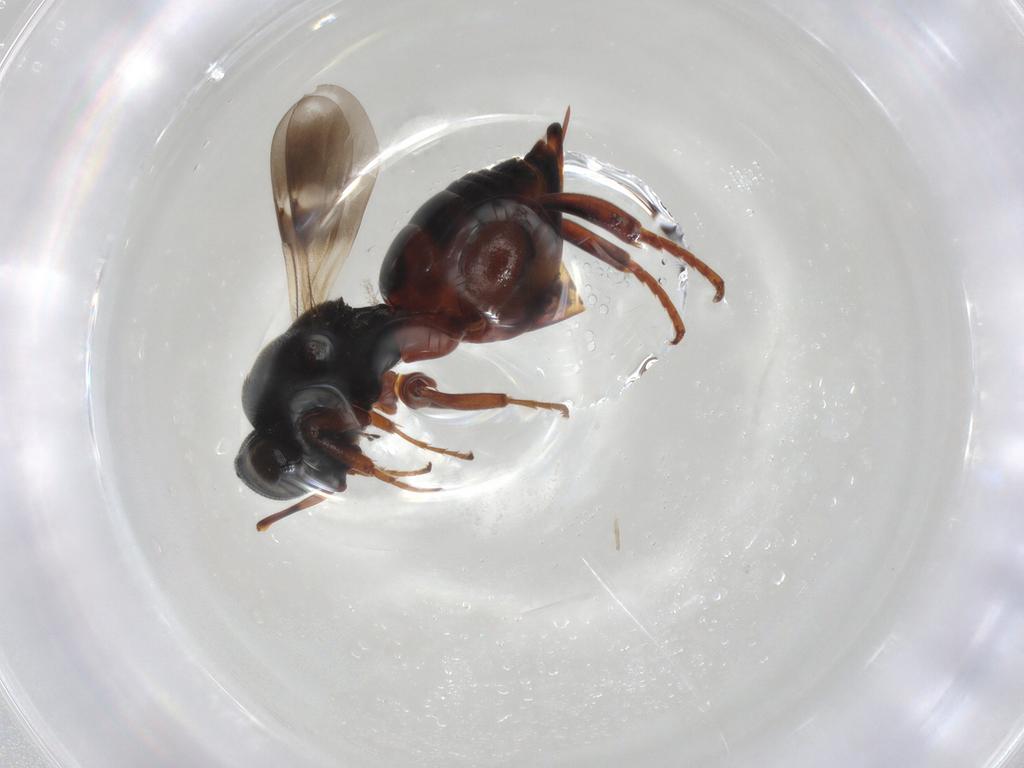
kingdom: Animalia
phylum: Arthropoda
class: Insecta
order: Hymenoptera
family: Chalcididae
